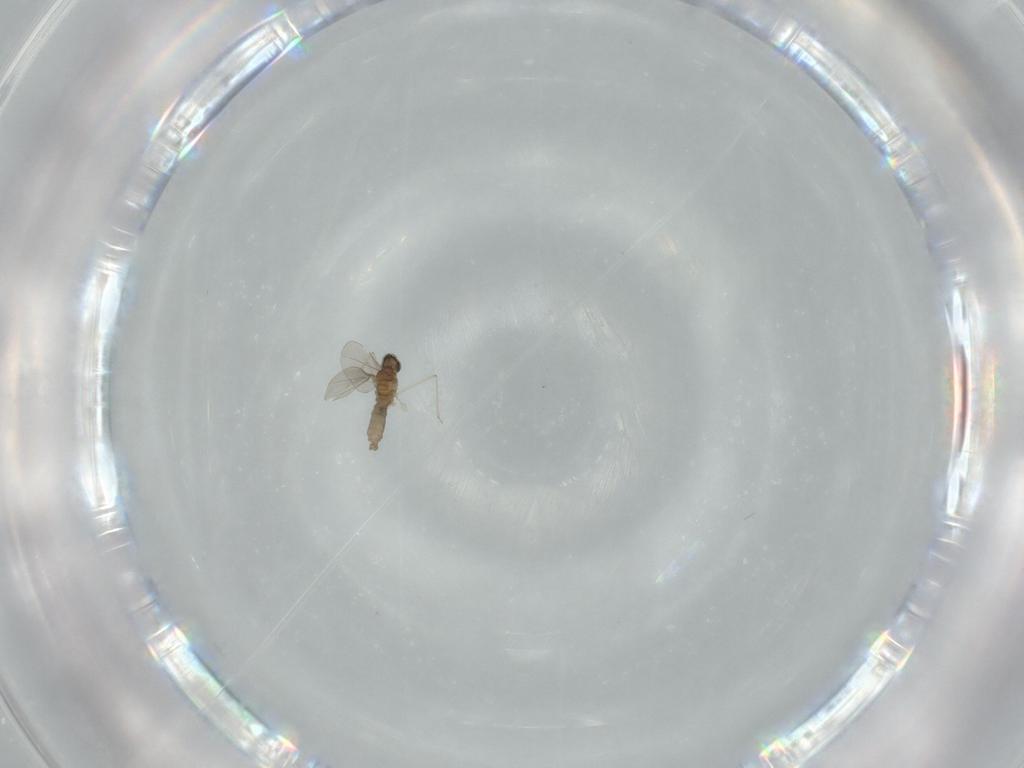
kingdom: Animalia
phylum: Arthropoda
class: Insecta
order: Diptera
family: Cecidomyiidae
